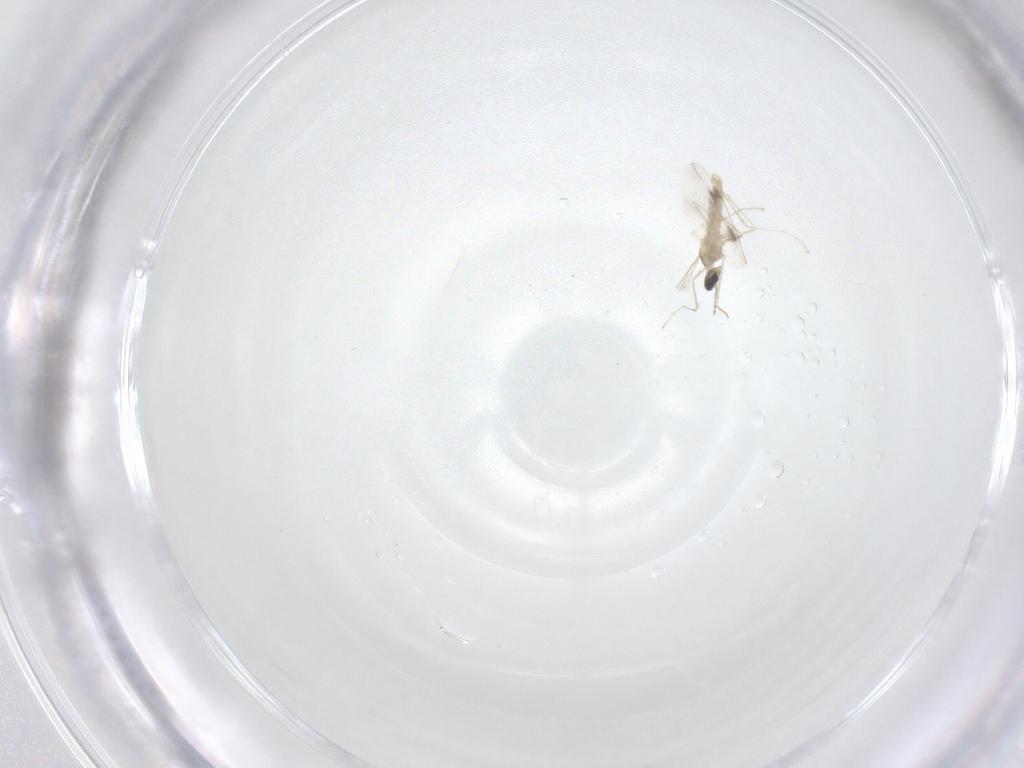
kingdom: Animalia
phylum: Arthropoda
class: Insecta
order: Diptera
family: Cecidomyiidae
